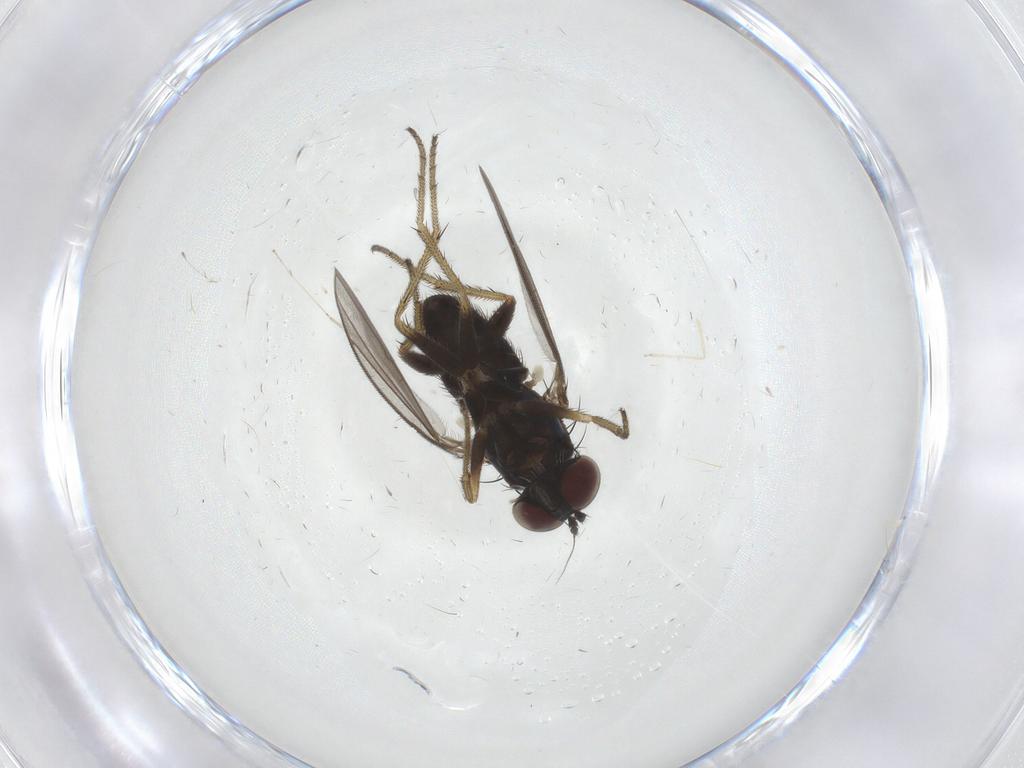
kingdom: Animalia
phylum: Arthropoda
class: Insecta
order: Diptera
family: Dolichopodidae
